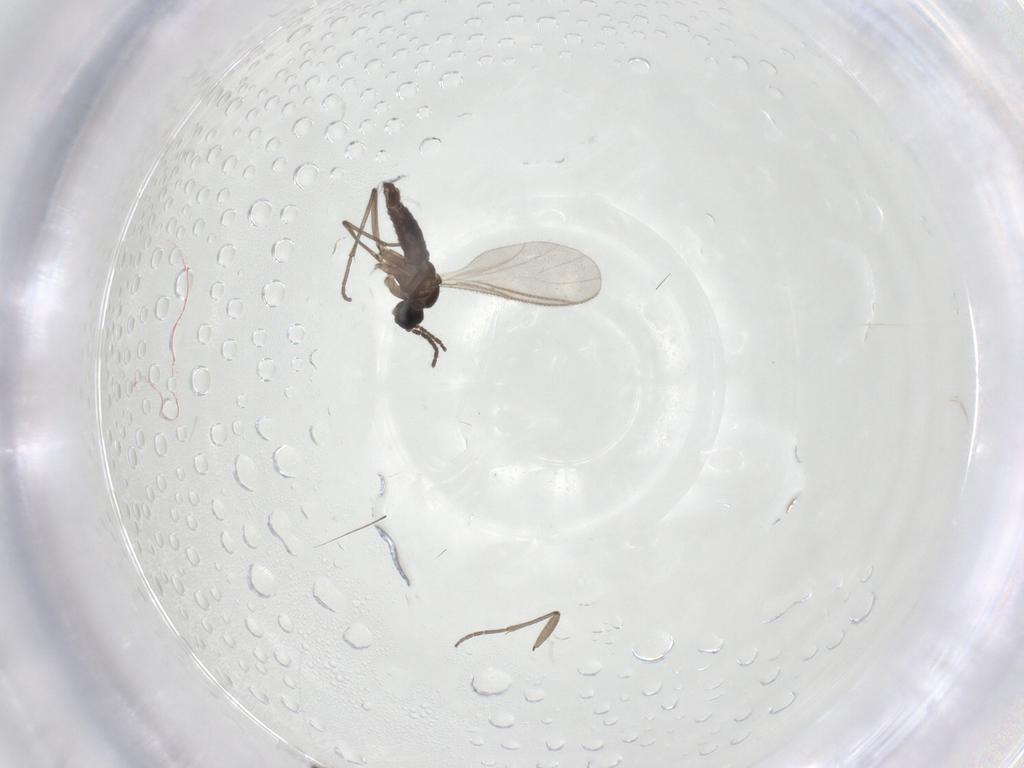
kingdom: Animalia
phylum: Arthropoda
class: Insecta
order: Diptera
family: Sciaridae
